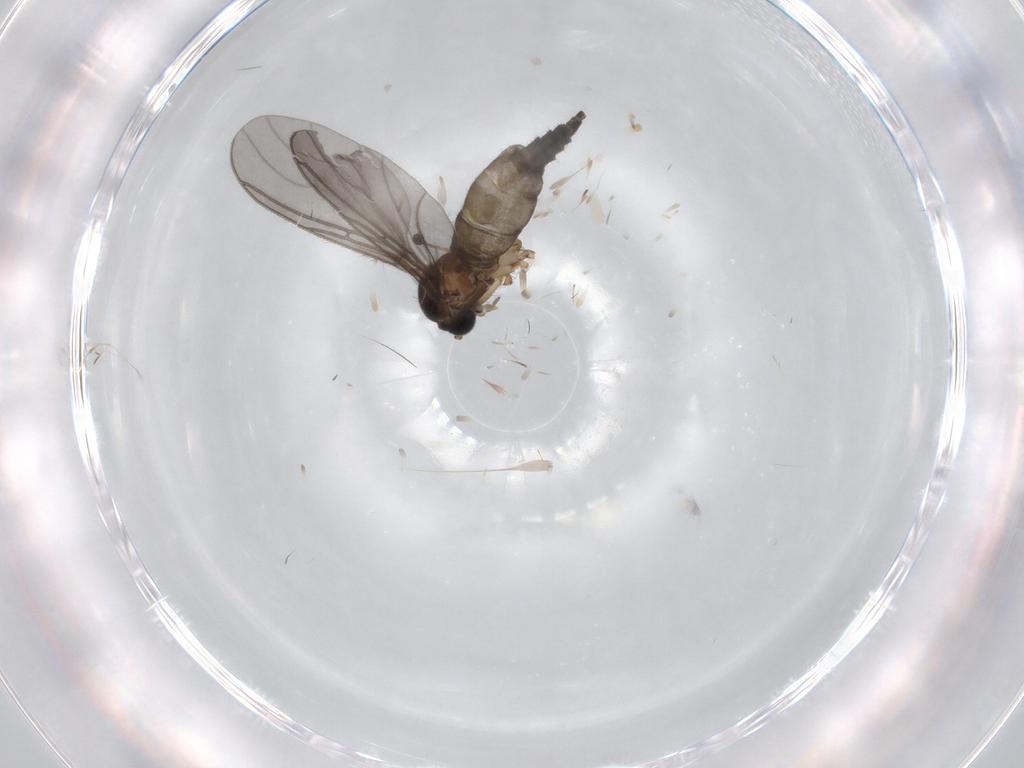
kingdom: Animalia
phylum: Arthropoda
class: Insecta
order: Diptera
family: Sciaridae
